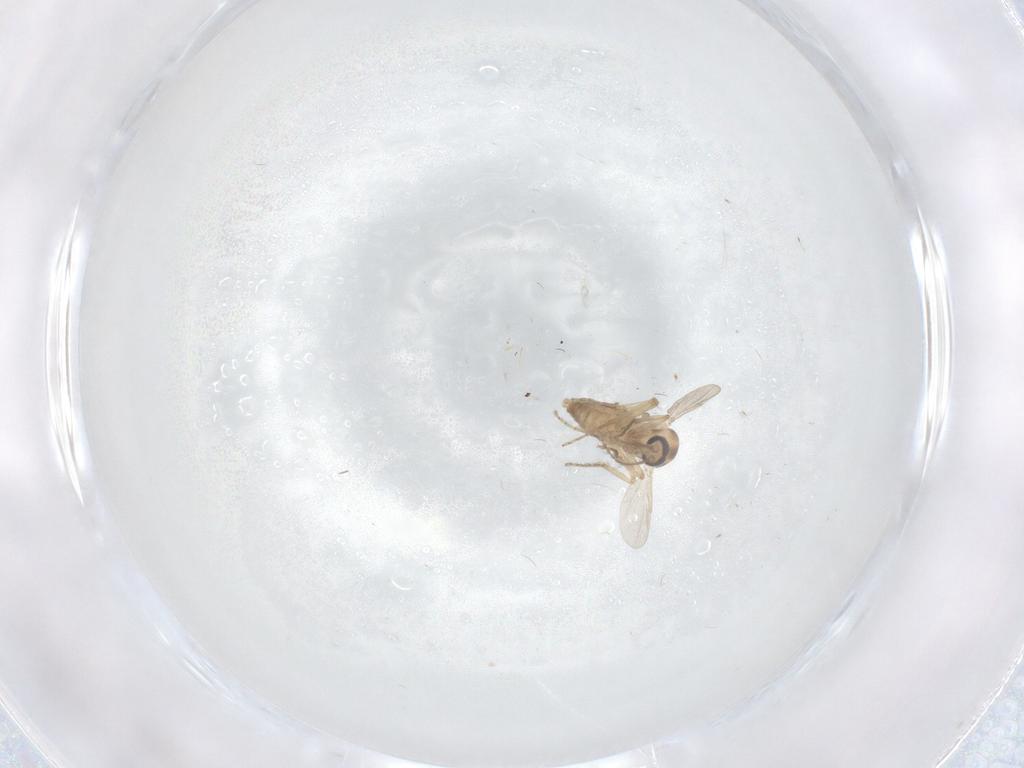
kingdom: Animalia
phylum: Arthropoda
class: Insecta
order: Diptera
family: Ceratopogonidae
